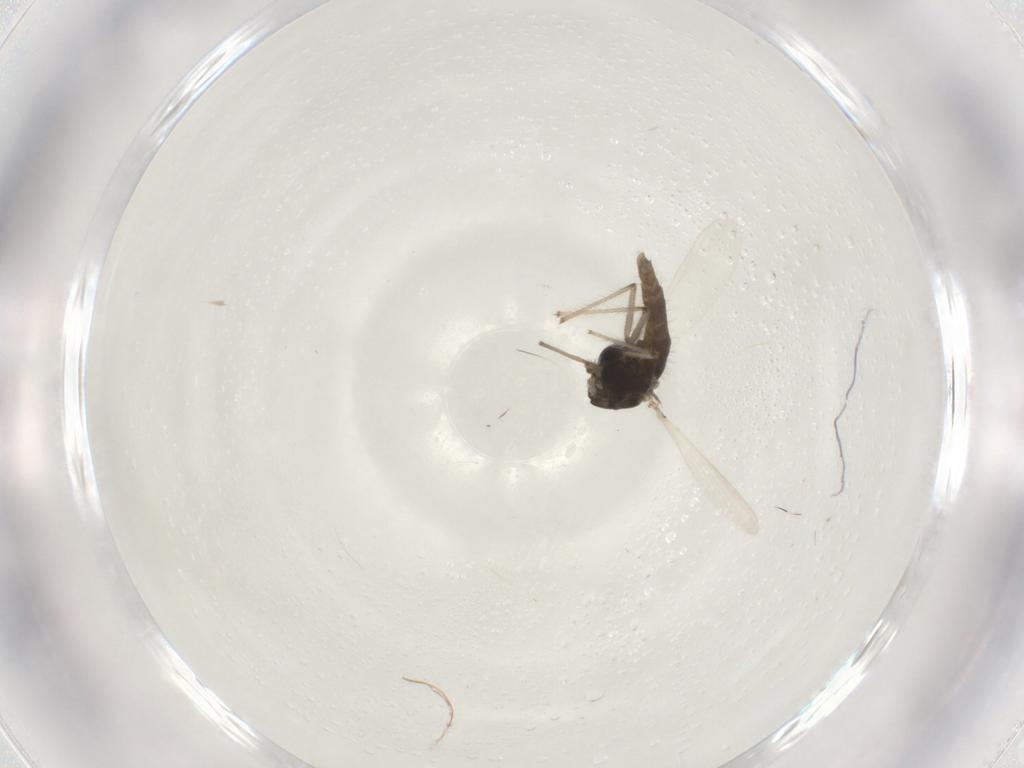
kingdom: Animalia
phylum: Arthropoda
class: Insecta
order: Diptera
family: Chironomidae
